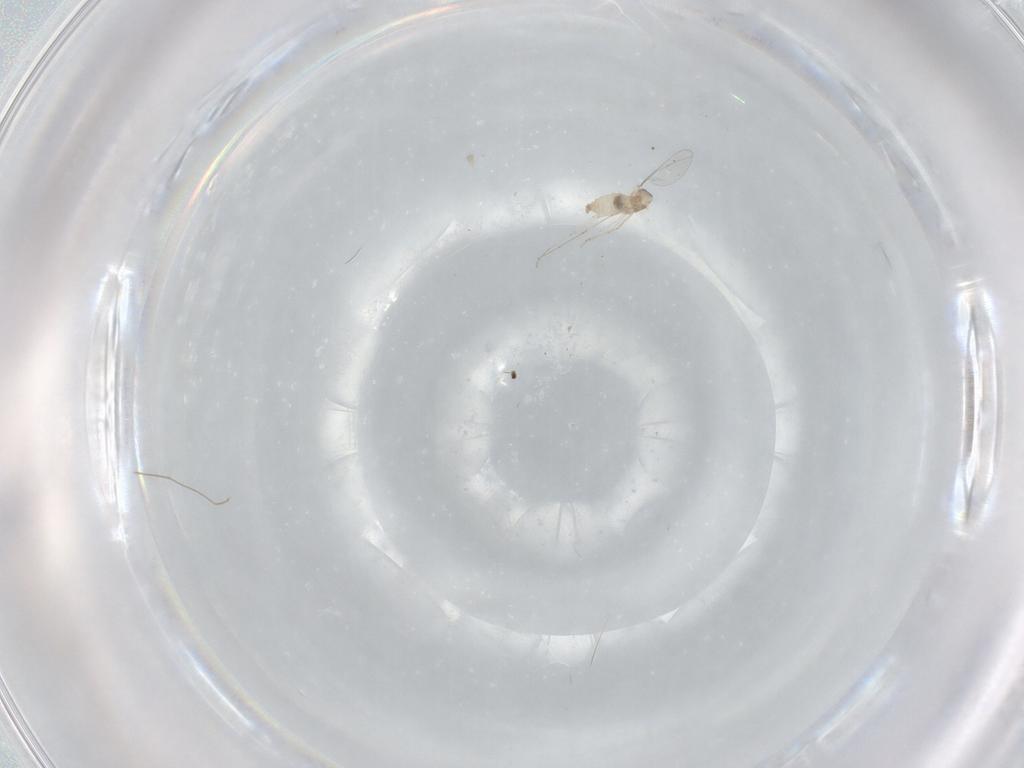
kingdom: Animalia
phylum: Arthropoda
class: Insecta
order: Diptera
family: Cecidomyiidae
